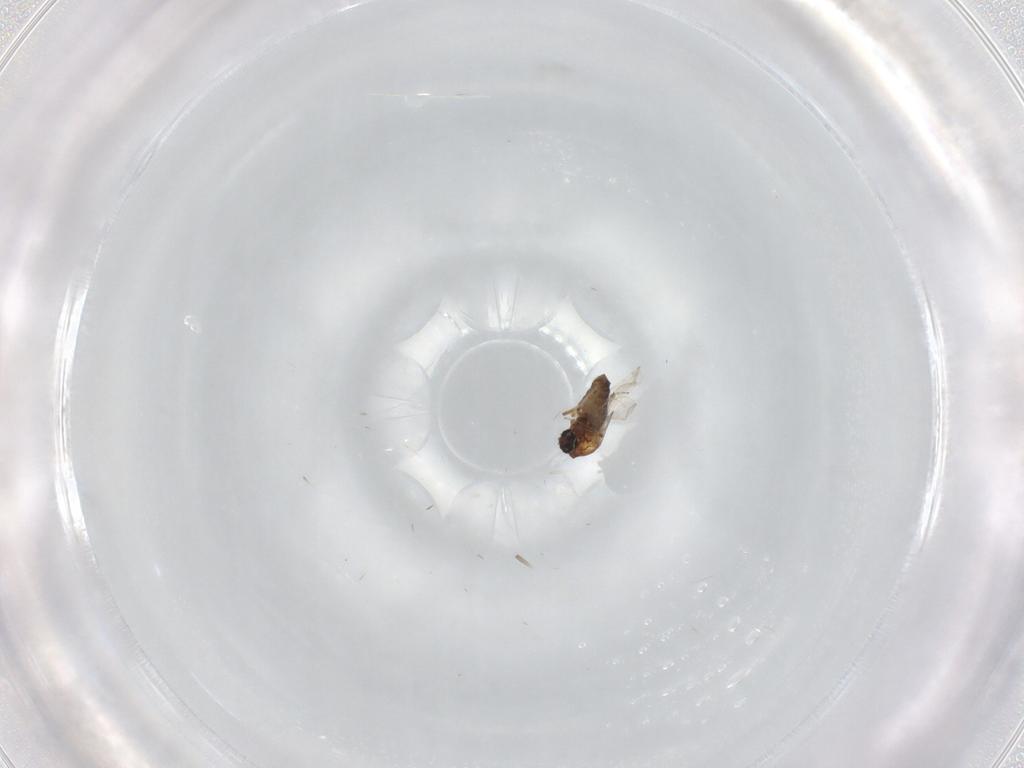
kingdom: Animalia
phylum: Arthropoda
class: Insecta
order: Diptera
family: Ceratopogonidae
